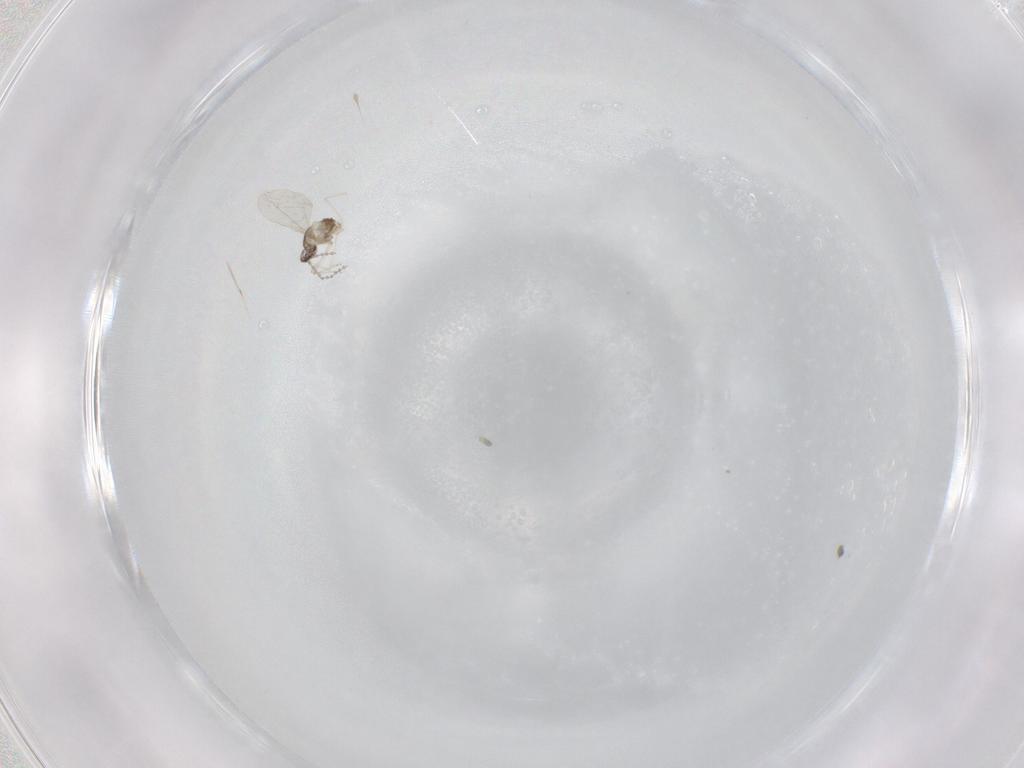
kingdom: Animalia
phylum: Arthropoda
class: Insecta
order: Diptera
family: Cecidomyiidae
